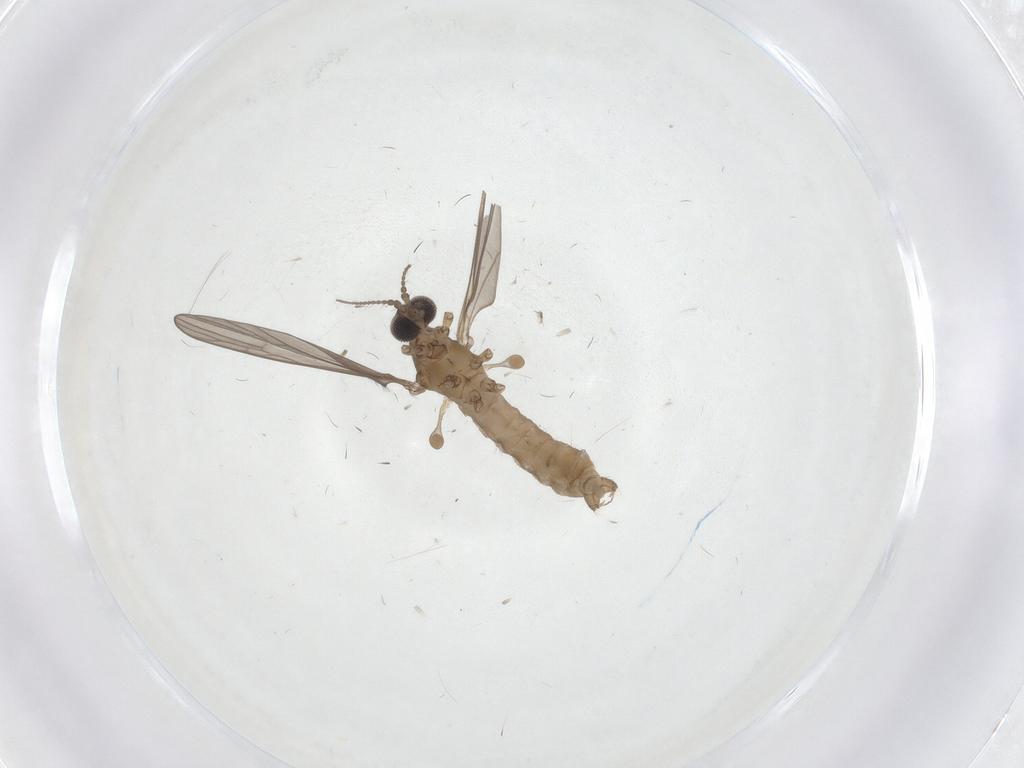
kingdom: Animalia
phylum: Arthropoda
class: Insecta
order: Diptera
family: Limoniidae
